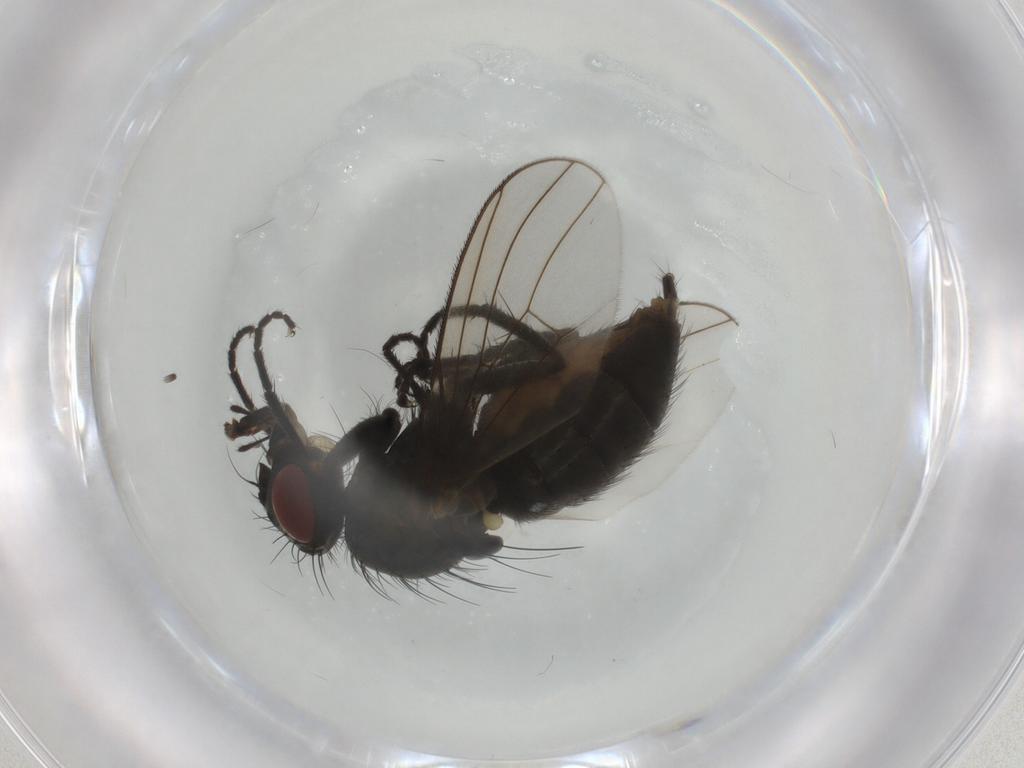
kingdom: Animalia
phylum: Arthropoda
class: Insecta
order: Diptera
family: Muscidae
